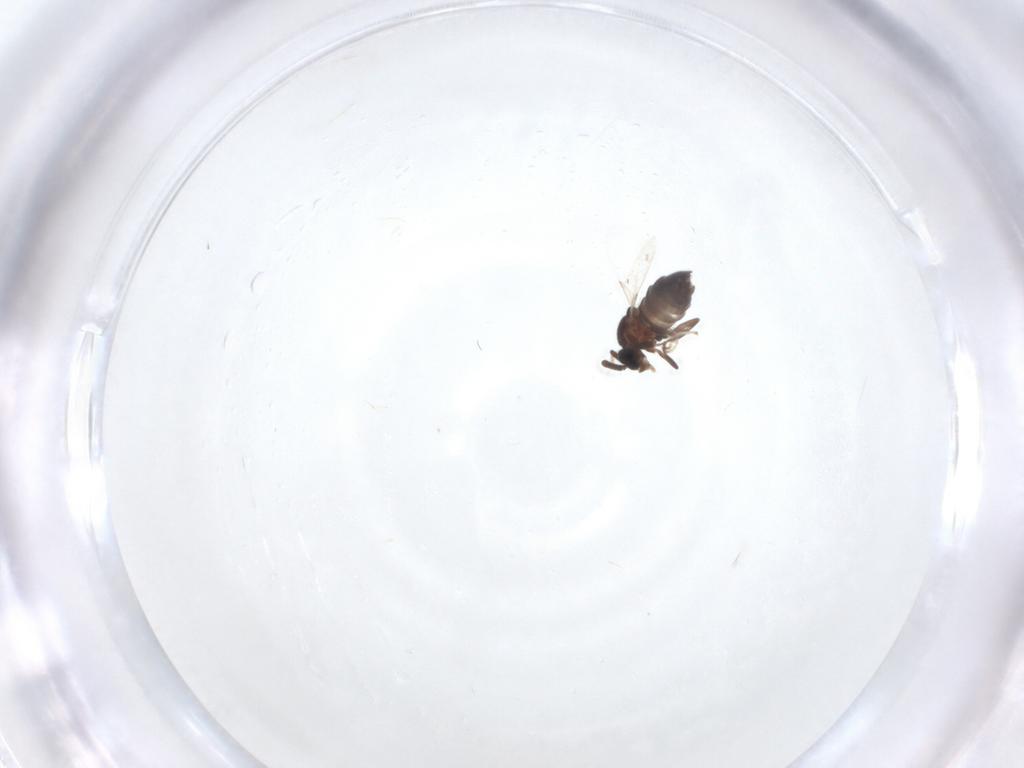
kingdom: Animalia
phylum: Arthropoda
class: Insecta
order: Diptera
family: Scatopsidae
